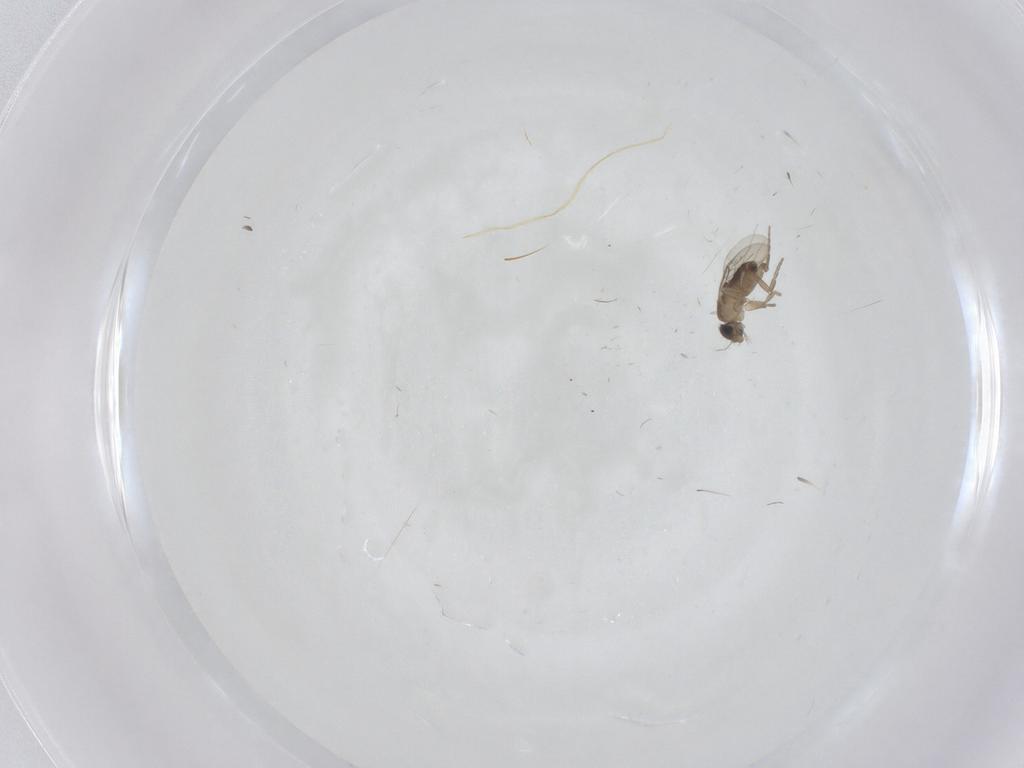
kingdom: Animalia
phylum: Arthropoda
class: Insecta
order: Diptera
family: Cecidomyiidae
